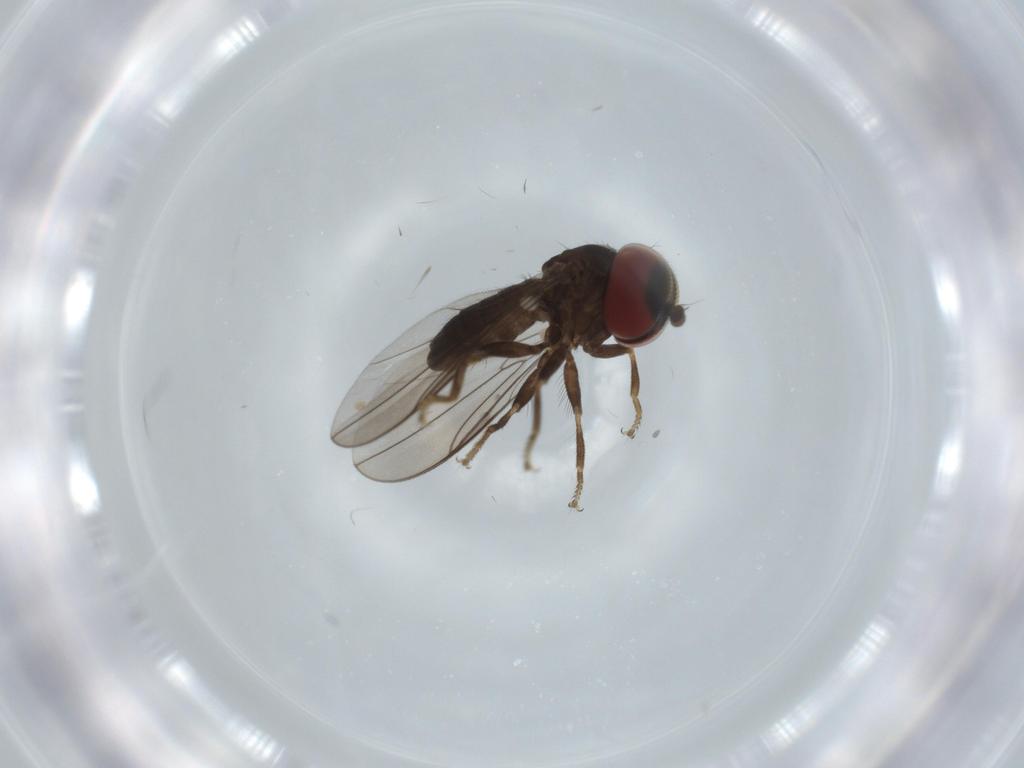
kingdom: Animalia
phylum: Arthropoda
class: Insecta
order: Diptera
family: Pipunculidae
